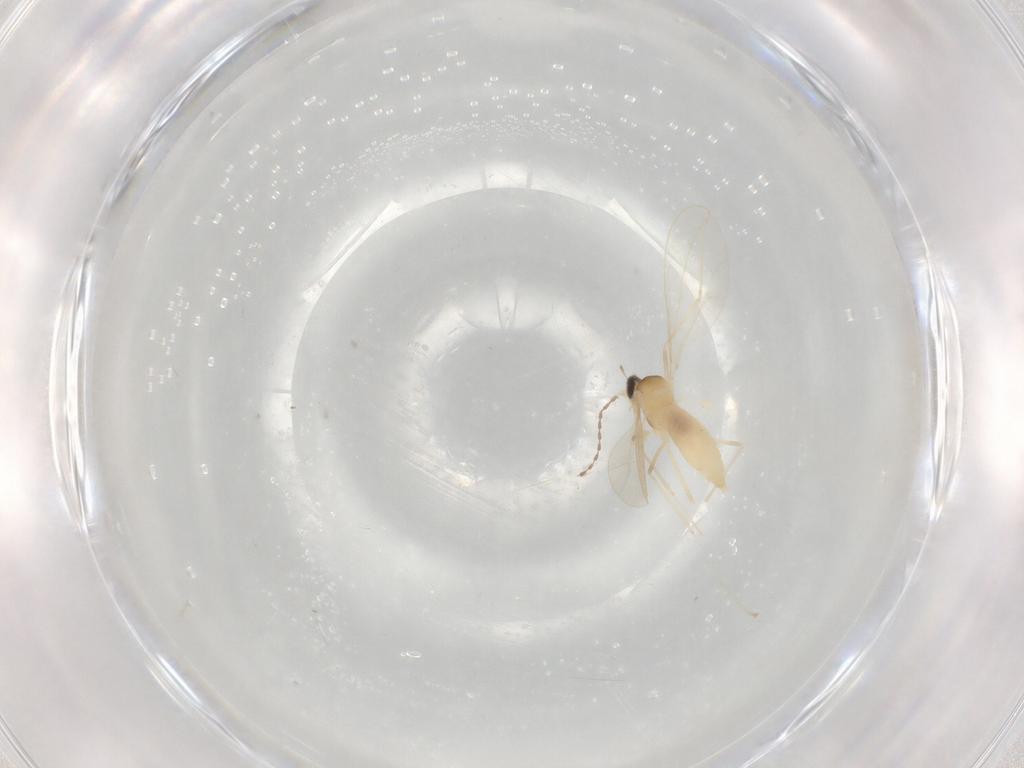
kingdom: Animalia
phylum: Arthropoda
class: Insecta
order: Diptera
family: Cecidomyiidae
